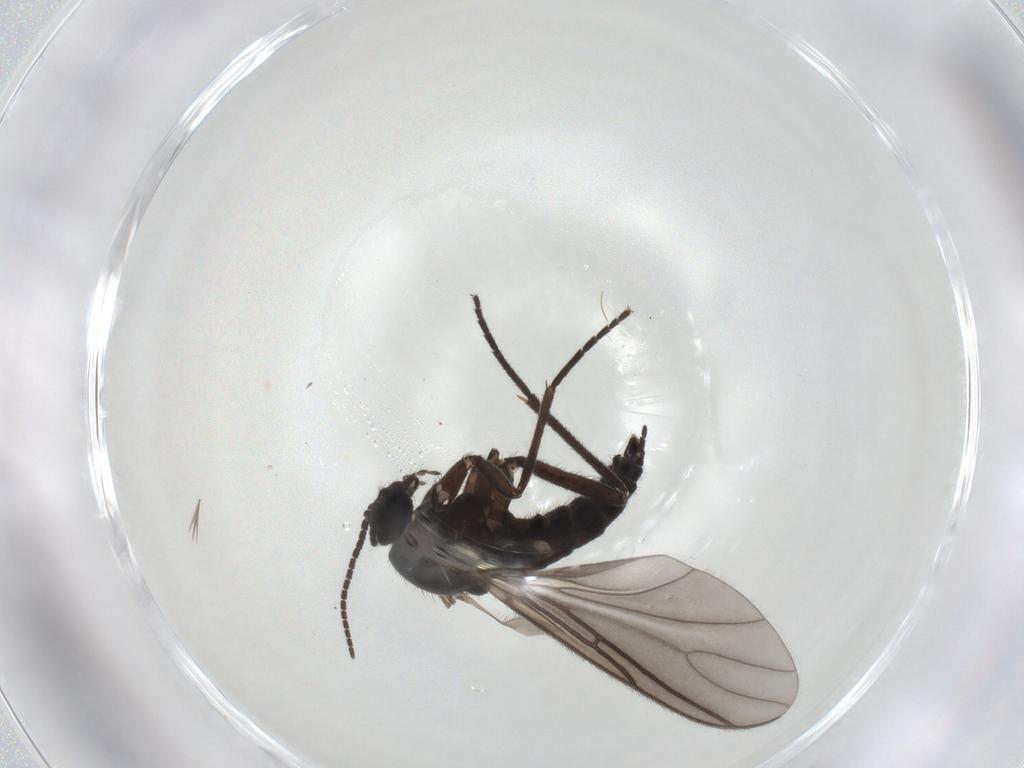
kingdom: Animalia
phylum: Arthropoda
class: Insecta
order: Diptera
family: Sciaridae
